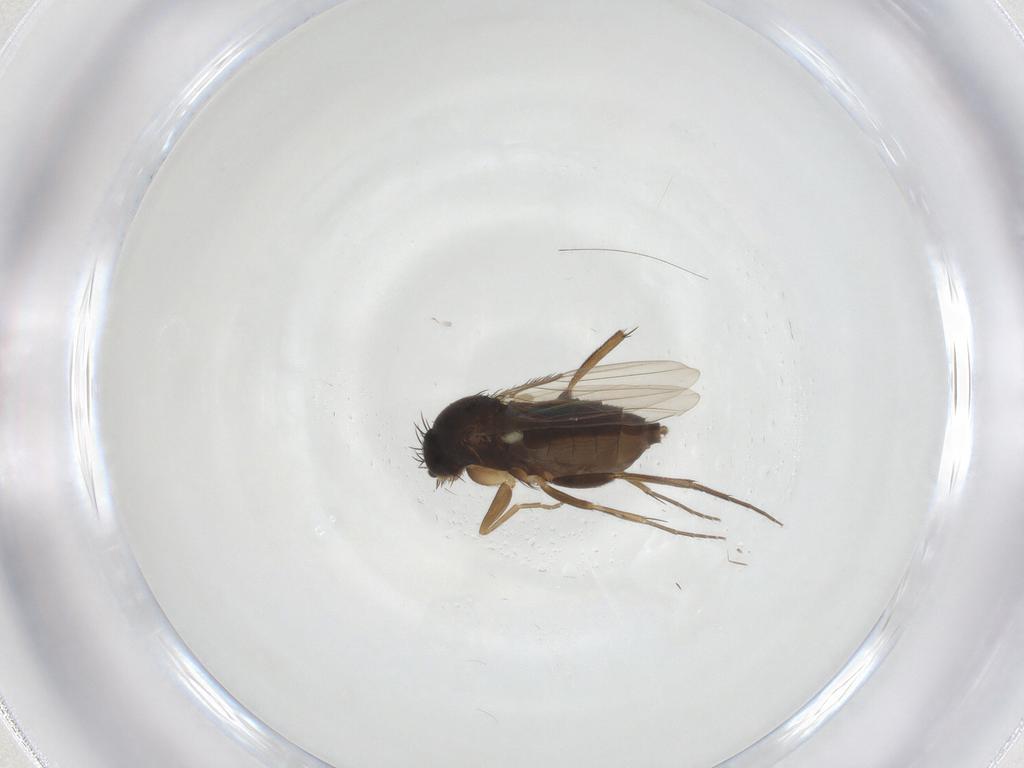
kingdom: Animalia
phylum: Arthropoda
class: Insecta
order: Diptera
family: Phoridae
